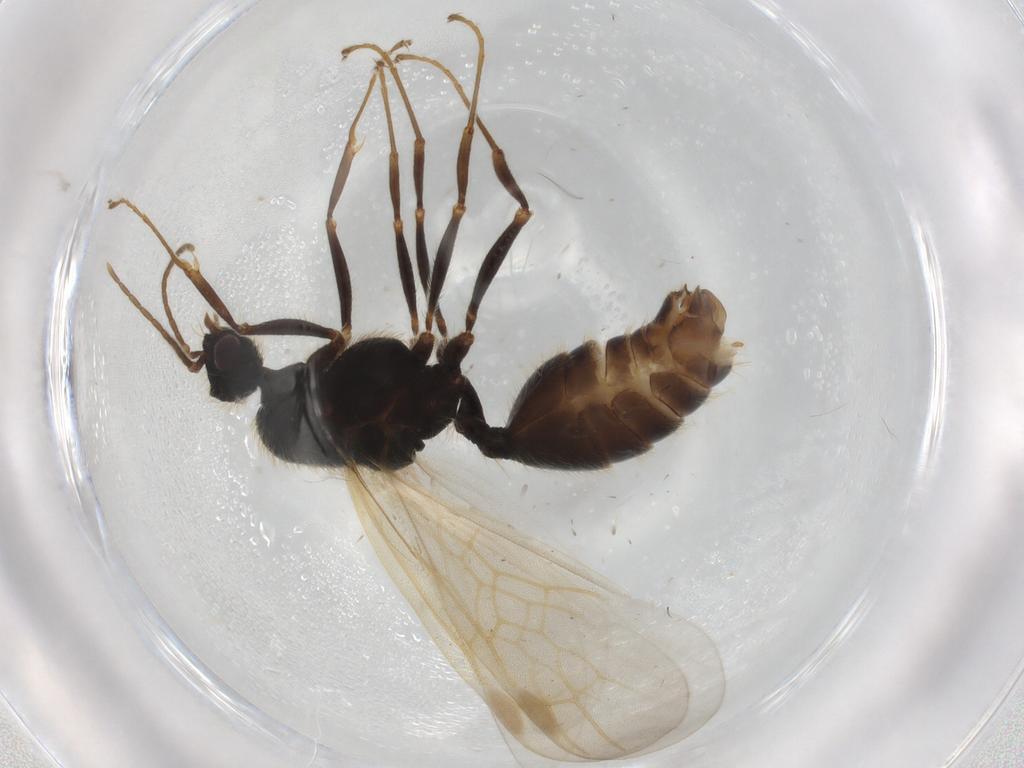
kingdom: Animalia
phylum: Arthropoda
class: Insecta
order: Hymenoptera
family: Formicidae
